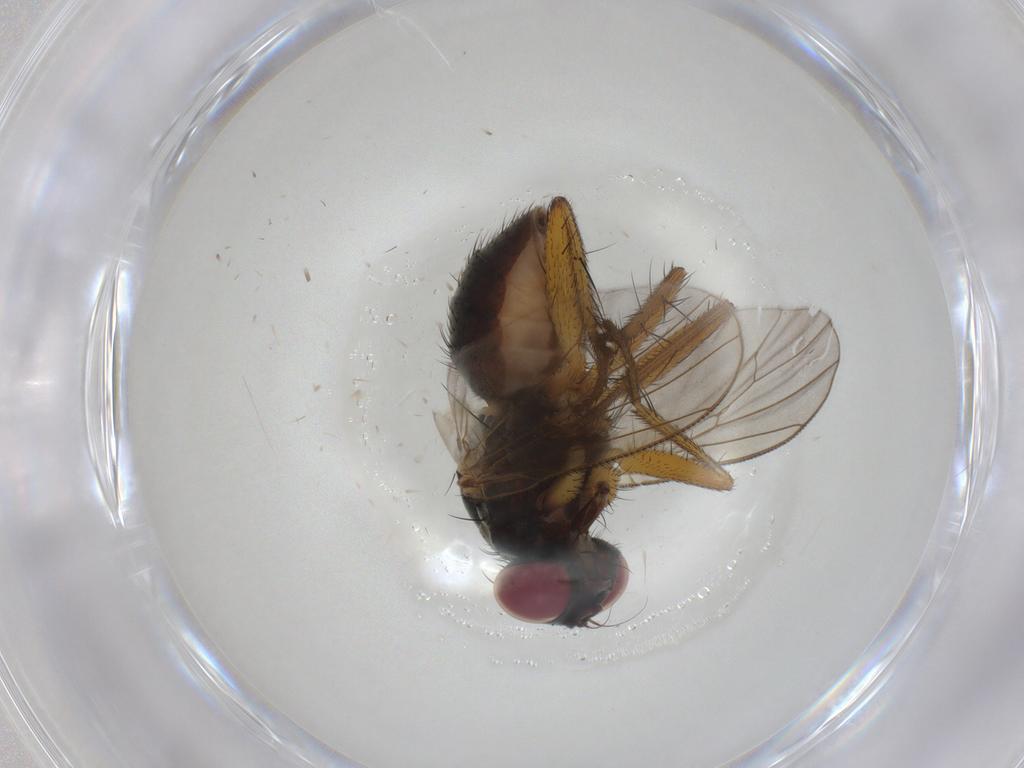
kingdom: Animalia
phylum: Arthropoda
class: Insecta
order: Diptera
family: Muscidae
